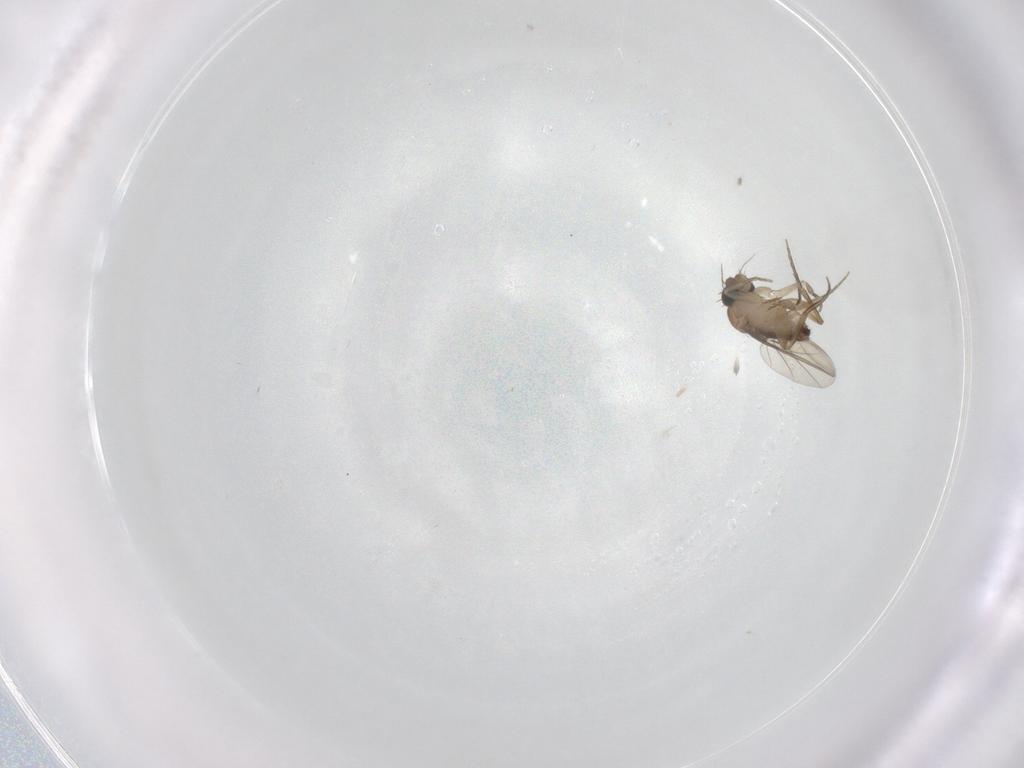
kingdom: Animalia
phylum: Arthropoda
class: Insecta
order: Diptera
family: Phoridae
